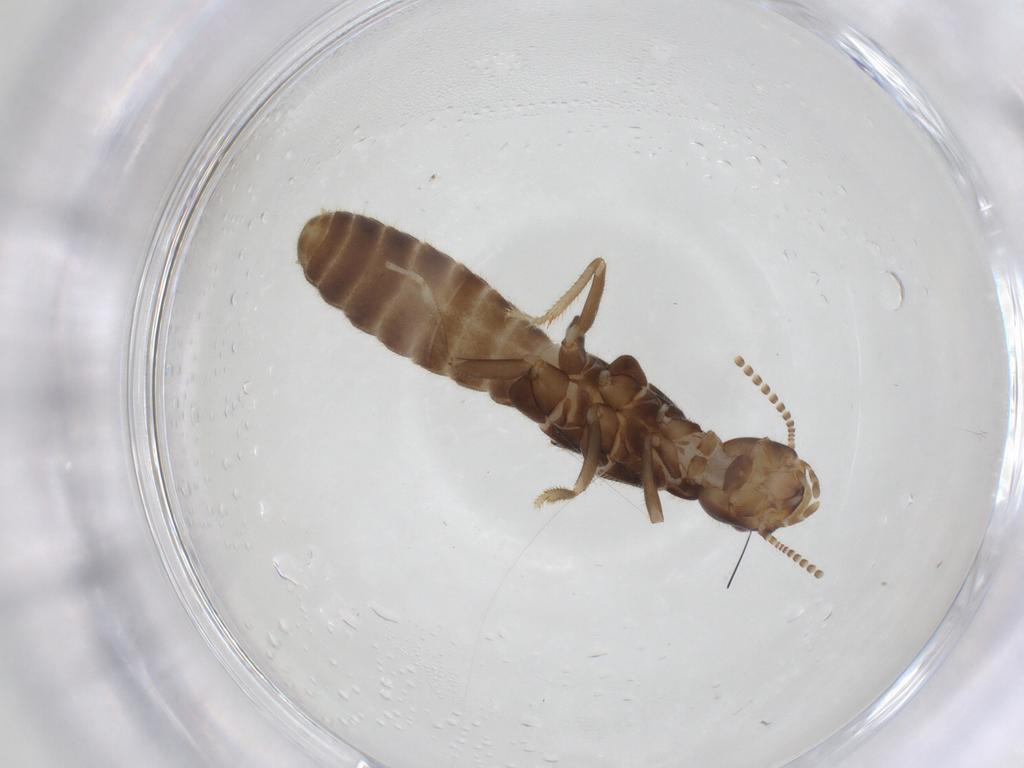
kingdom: Animalia
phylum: Arthropoda
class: Insecta
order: Blattodea
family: Rhinotermitidae
